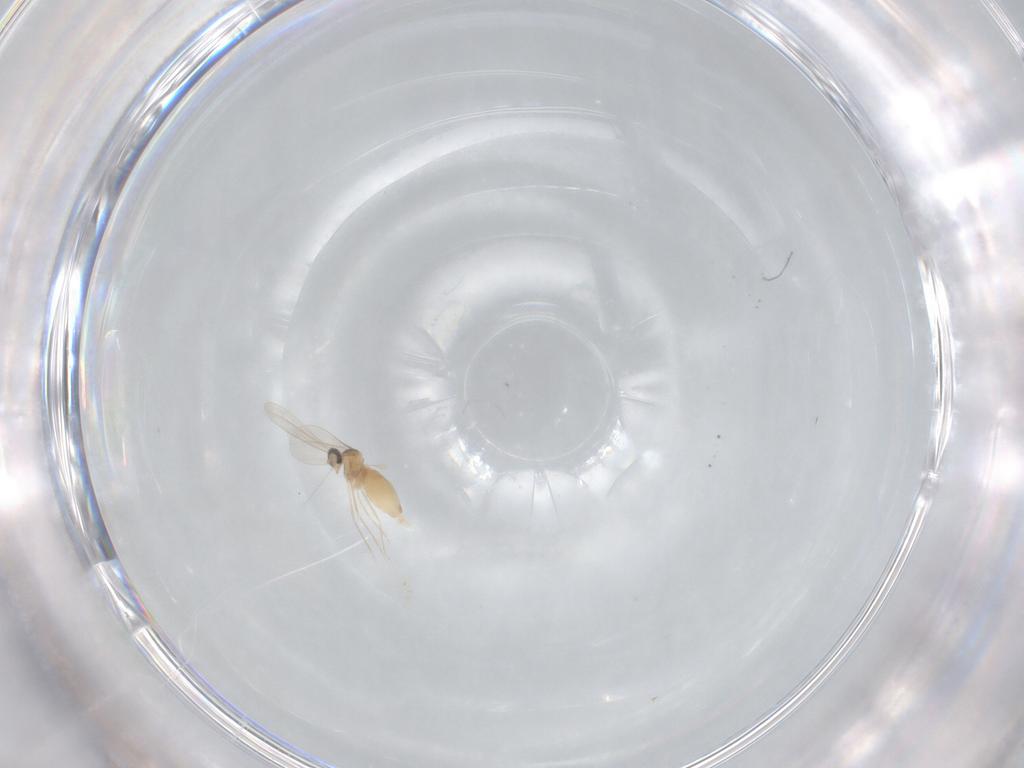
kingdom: Animalia
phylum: Arthropoda
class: Insecta
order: Diptera
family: Cecidomyiidae
